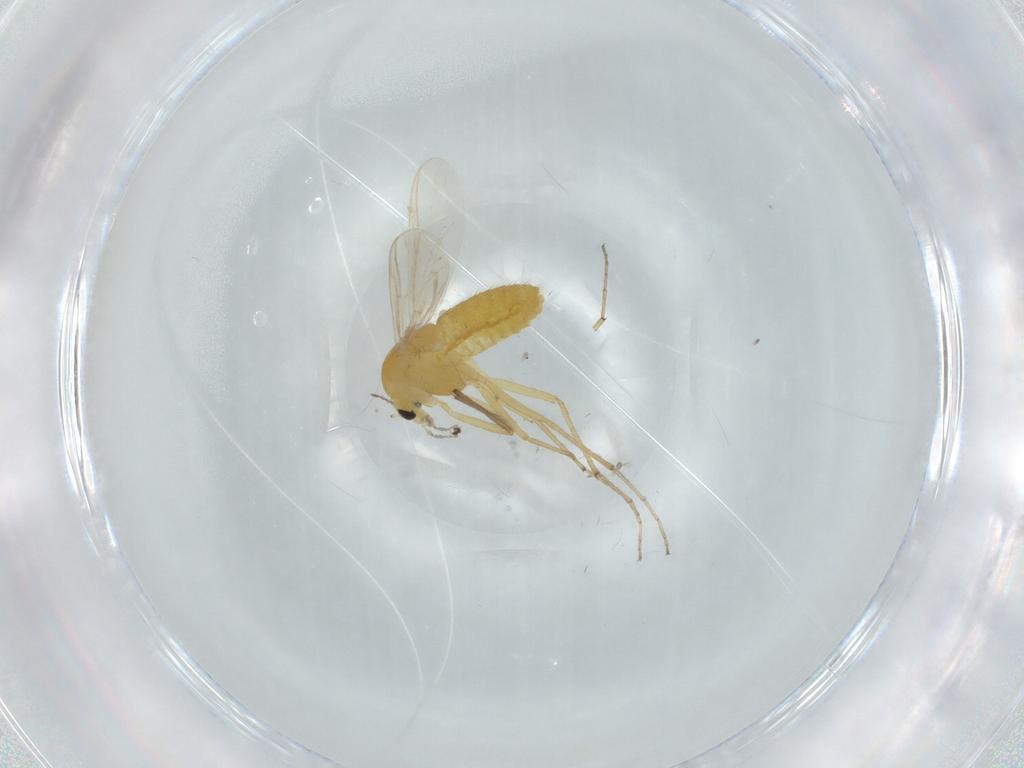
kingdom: Animalia
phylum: Arthropoda
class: Insecta
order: Diptera
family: Chironomidae
